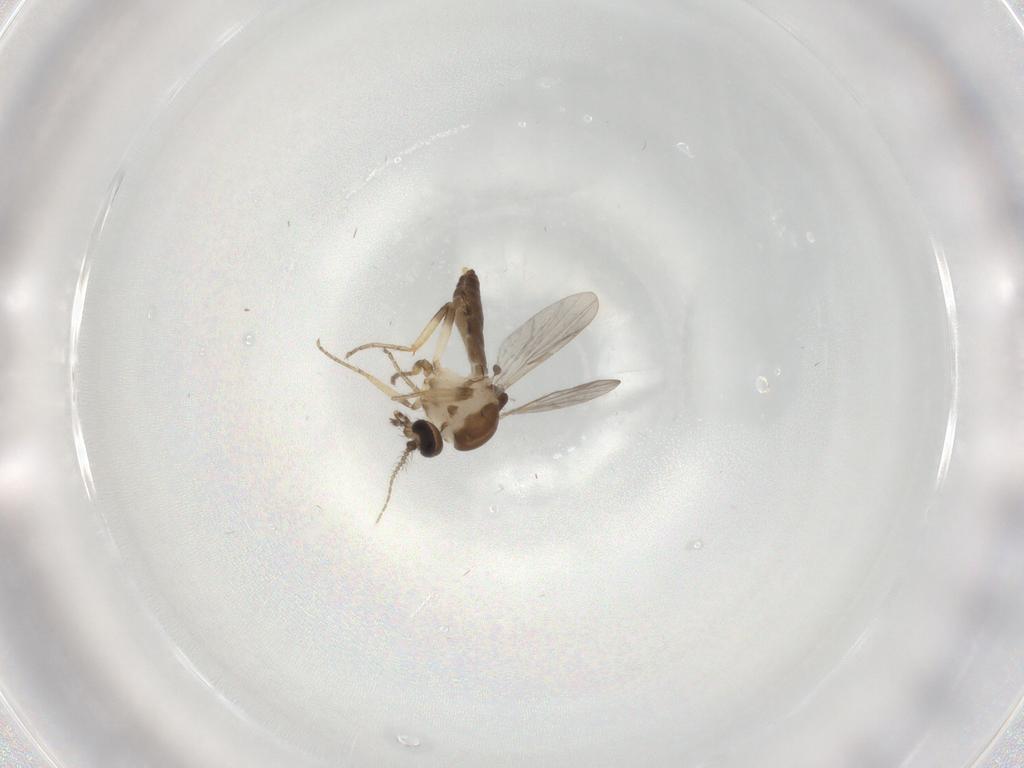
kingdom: Animalia
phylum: Arthropoda
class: Insecta
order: Diptera
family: Ceratopogonidae
